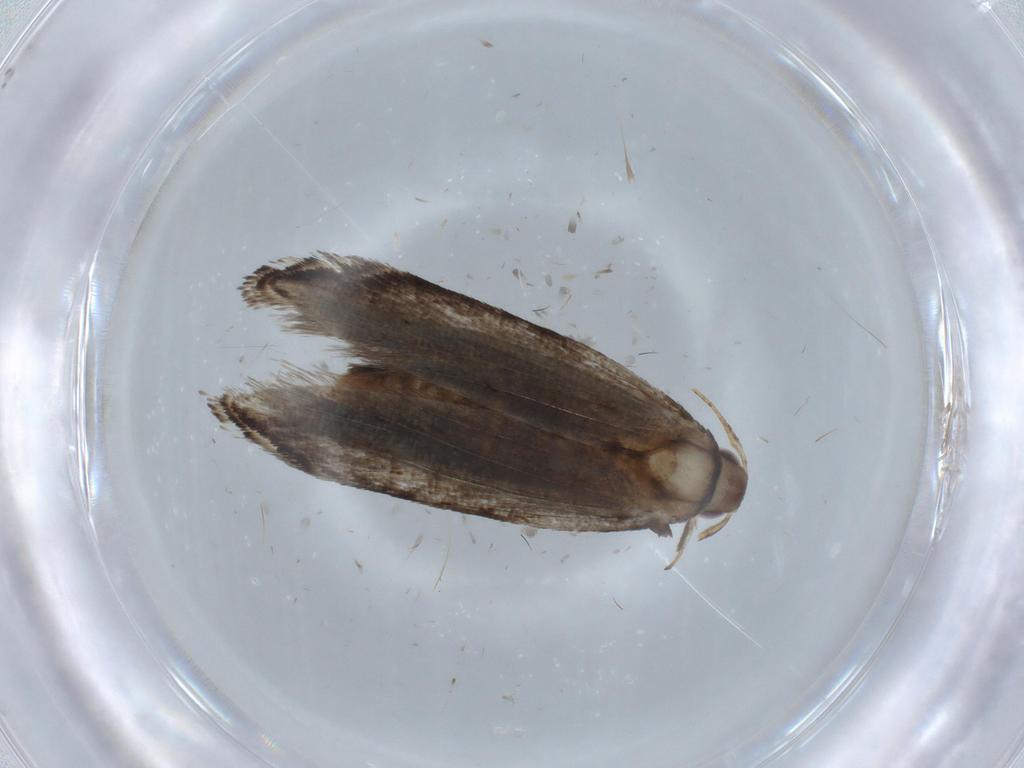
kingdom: Animalia
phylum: Arthropoda
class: Insecta
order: Lepidoptera
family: Gelechiidae
